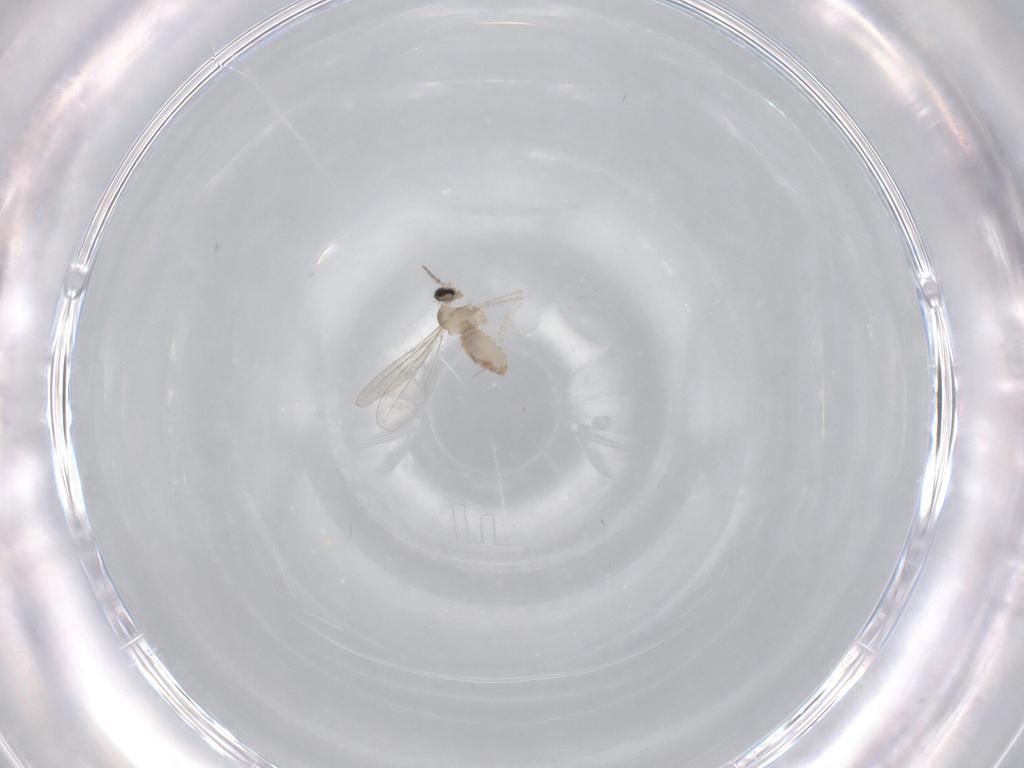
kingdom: Animalia
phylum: Arthropoda
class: Insecta
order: Diptera
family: Cecidomyiidae
